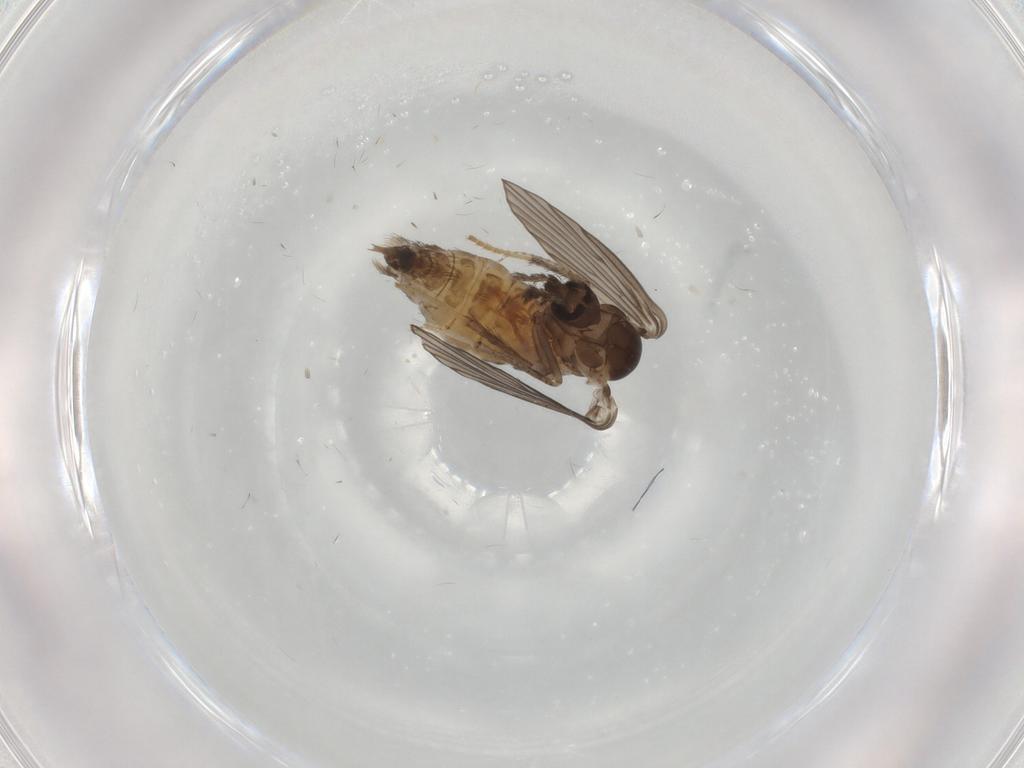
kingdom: Animalia
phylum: Arthropoda
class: Insecta
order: Diptera
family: Psychodidae
